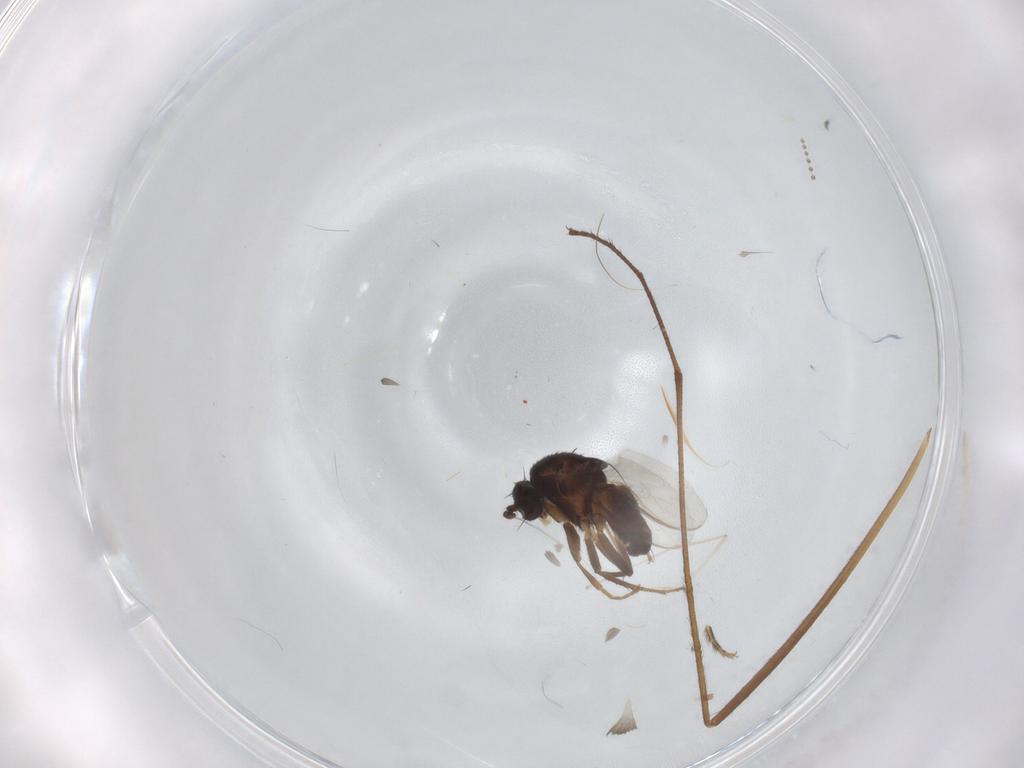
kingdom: Animalia
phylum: Arthropoda
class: Insecta
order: Diptera
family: Sphaeroceridae
